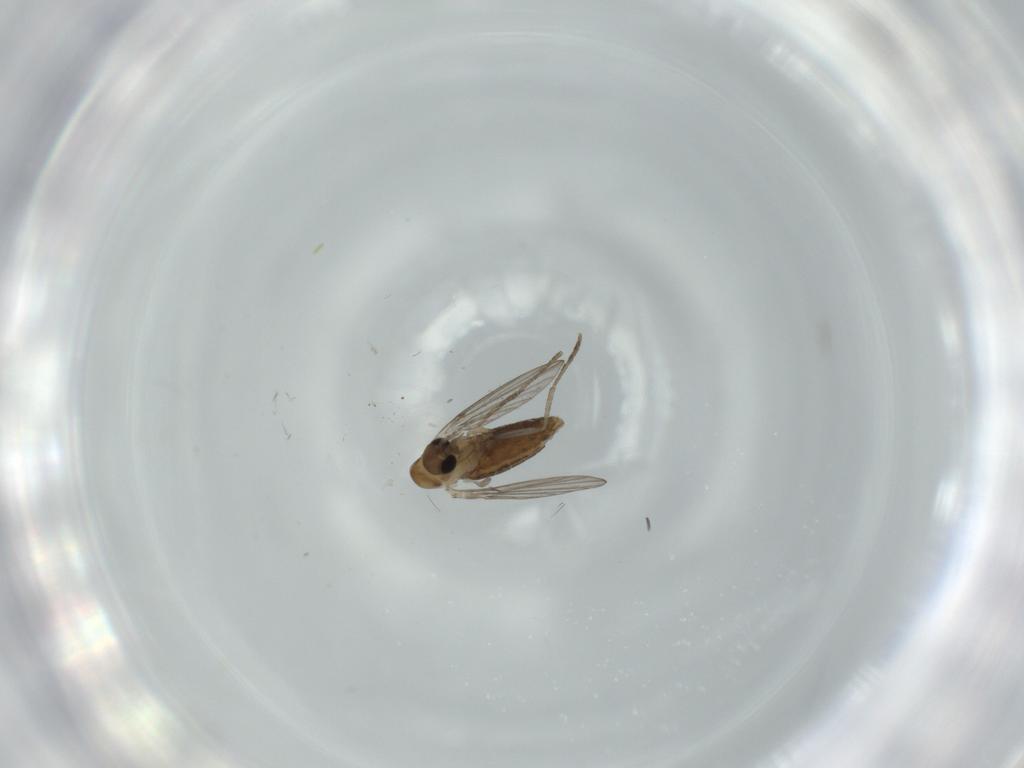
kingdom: Animalia
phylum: Arthropoda
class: Insecta
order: Diptera
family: Psychodidae
